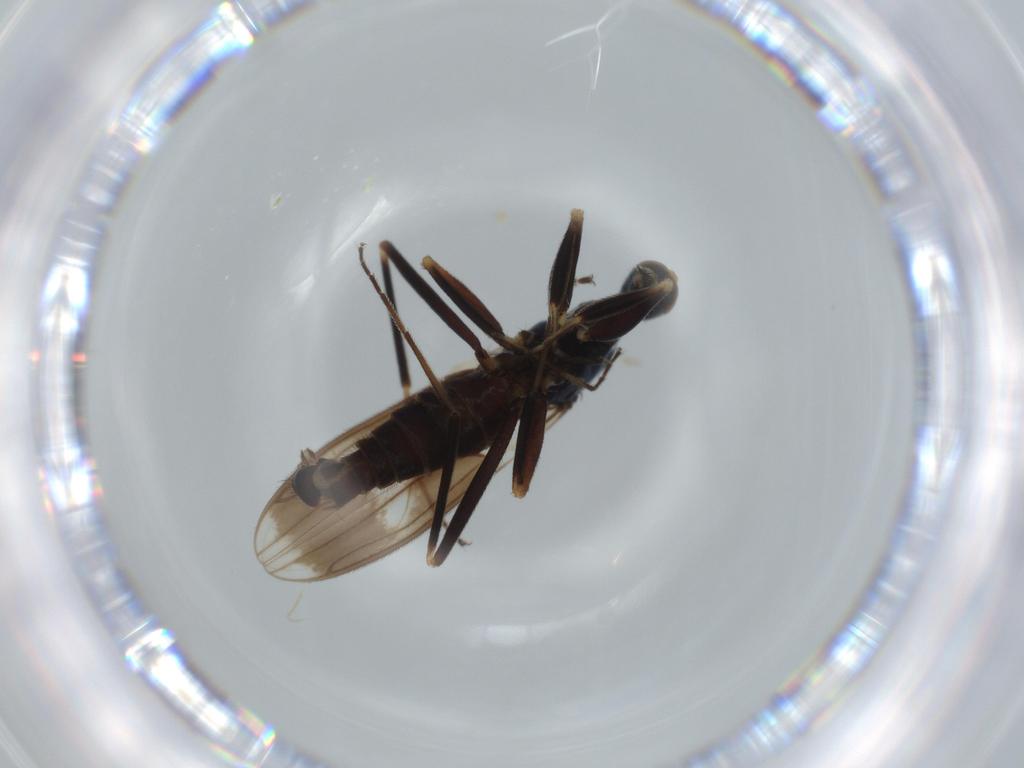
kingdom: Animalia
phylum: Arthropoda
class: Insecta
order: Diptera
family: Hybotidae
